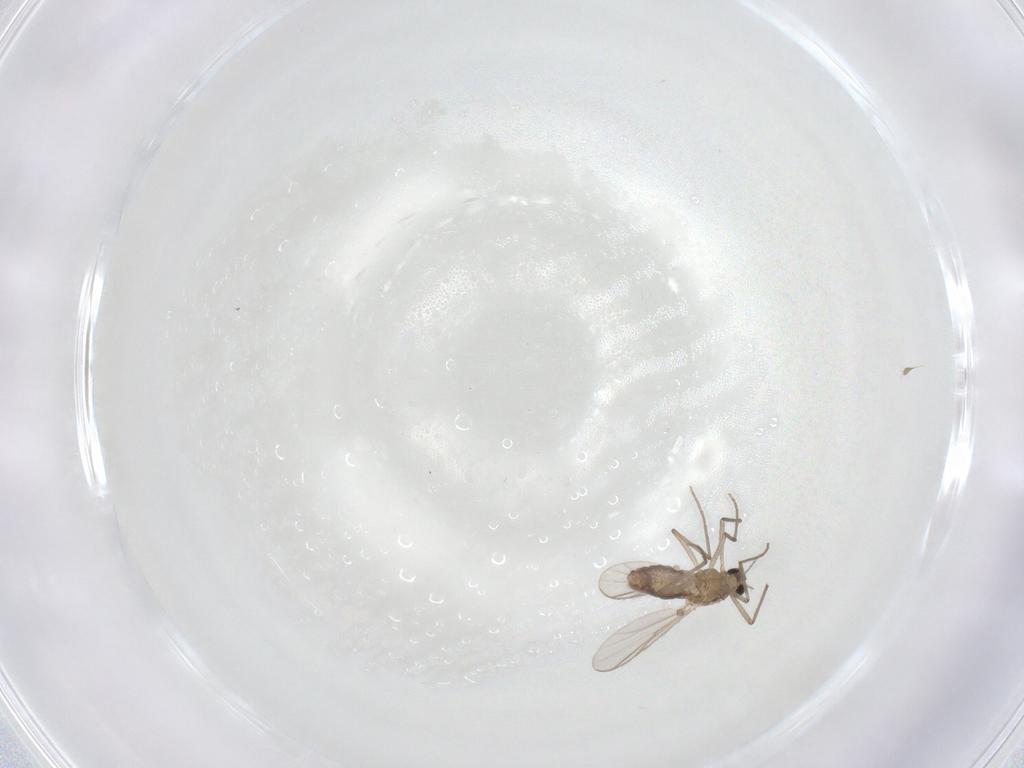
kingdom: Animalia
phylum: Arthropoda
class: Insecta
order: Diptera
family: Chironomidae
